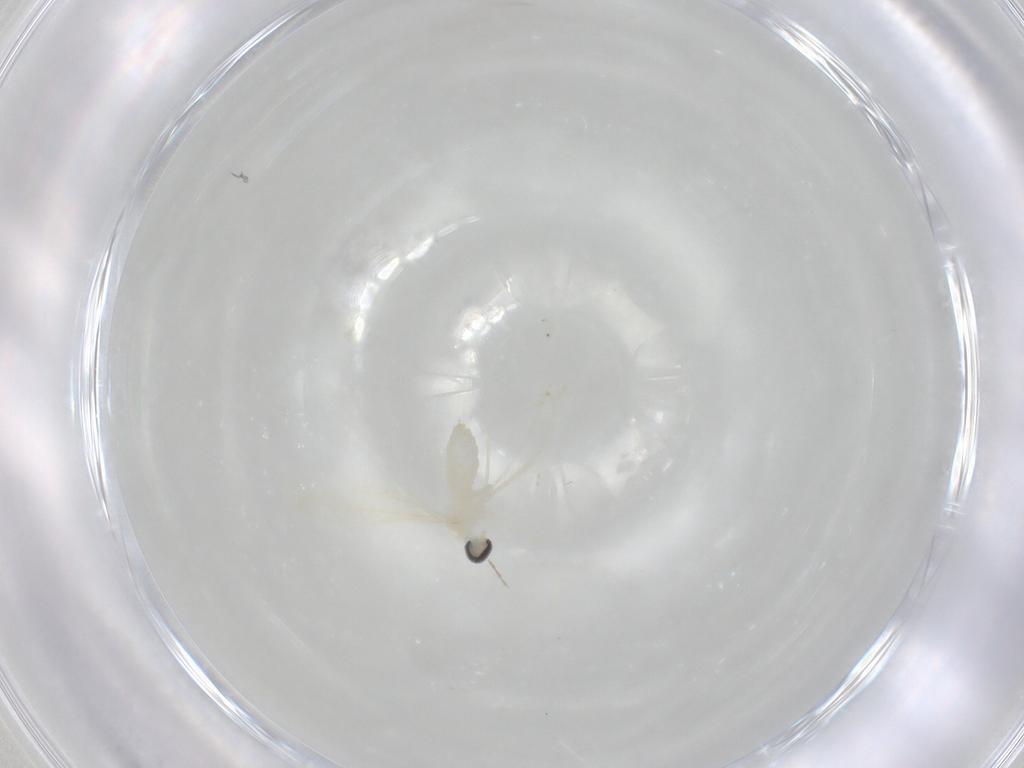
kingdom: Animalia
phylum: Arthropoda
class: Insecta
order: Diptera
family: Cecidomyiidae
